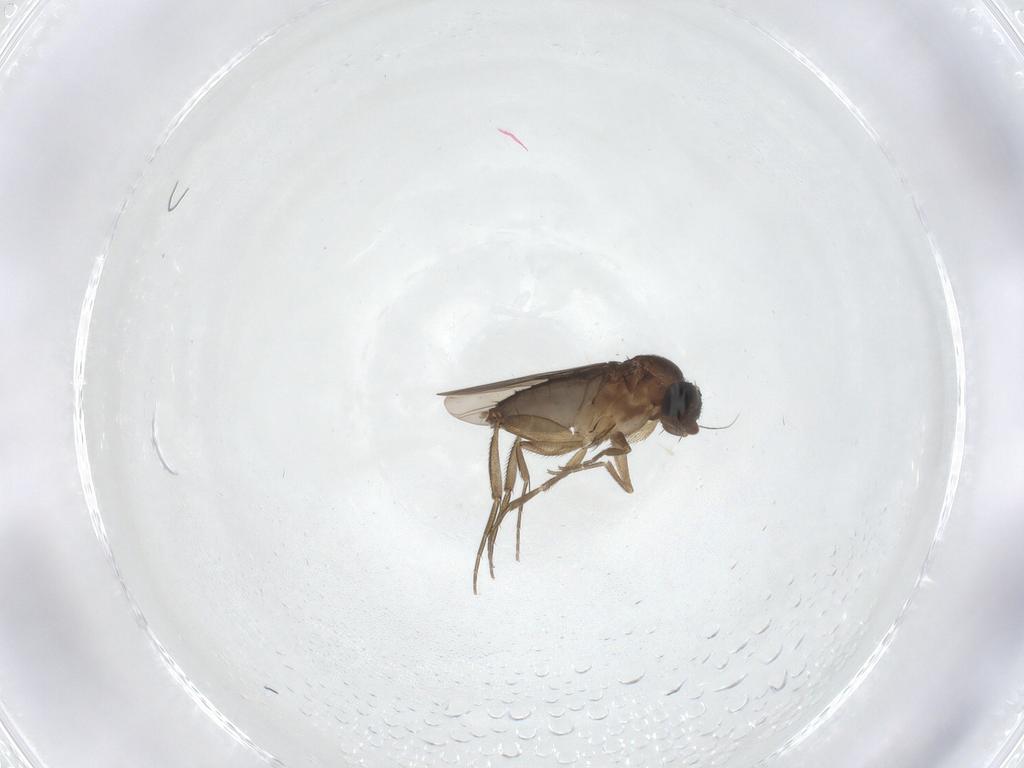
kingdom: Animalia
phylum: Arthropoda
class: Insecta
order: Diptera
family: Phoridae
